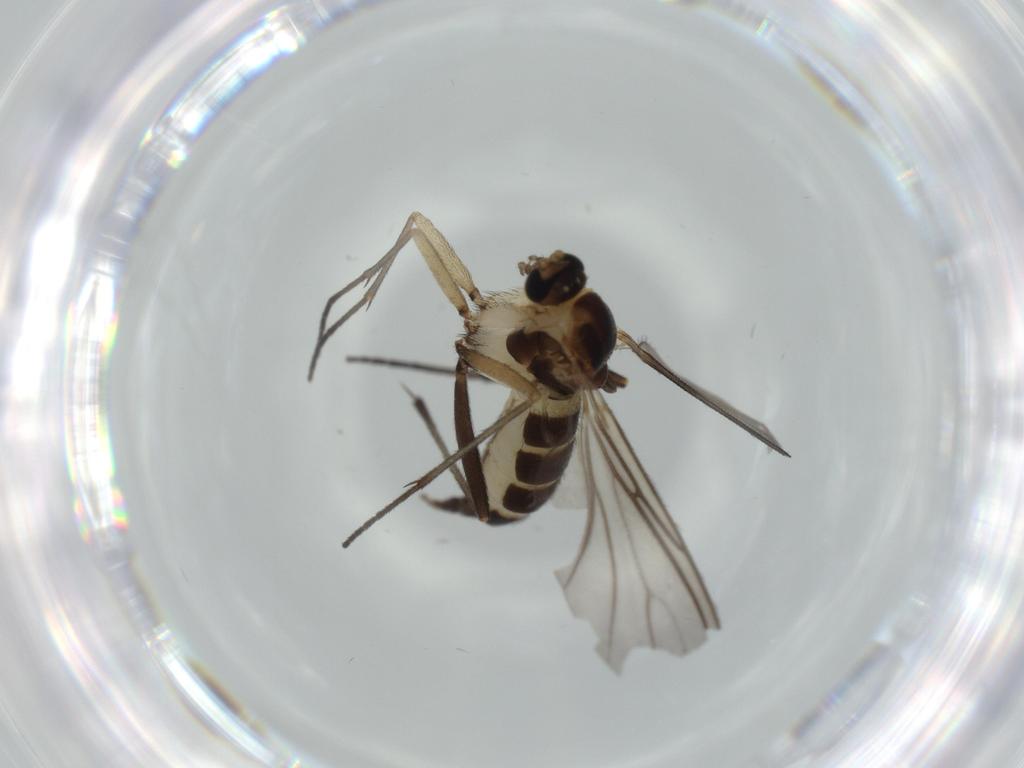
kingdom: Animalia
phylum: Arthropoda
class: Insecta
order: Diptera
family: Sciaridae
